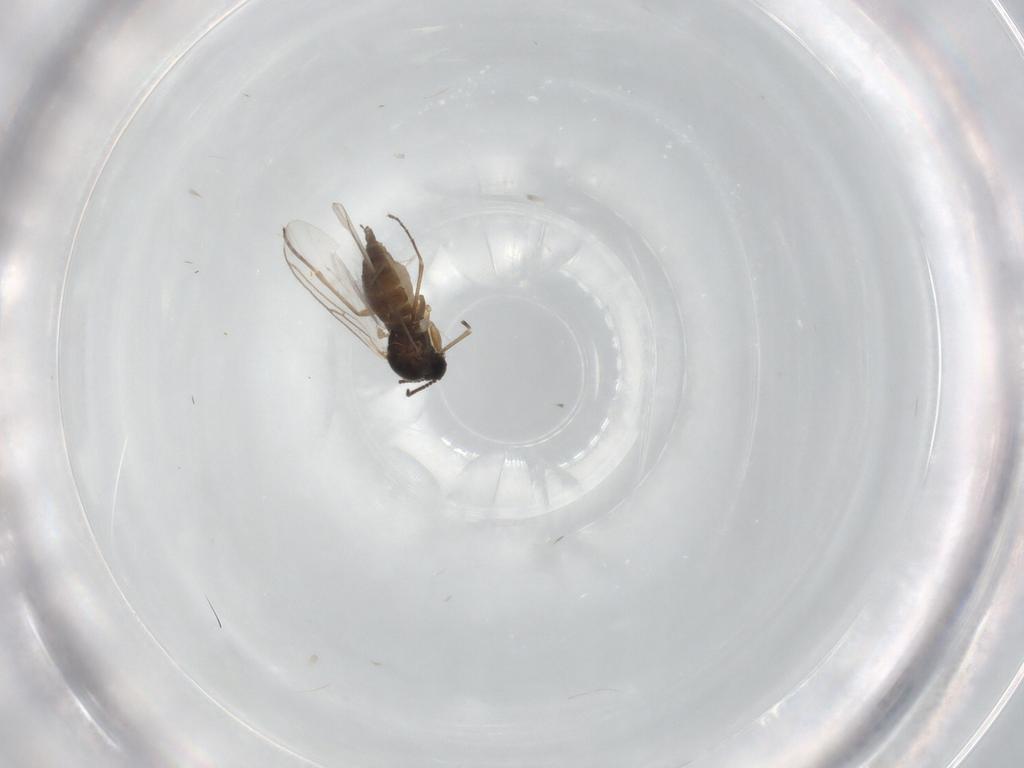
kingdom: Animalia
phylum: Arthropoda
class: Insecta
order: Diptera
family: Sciaridae
